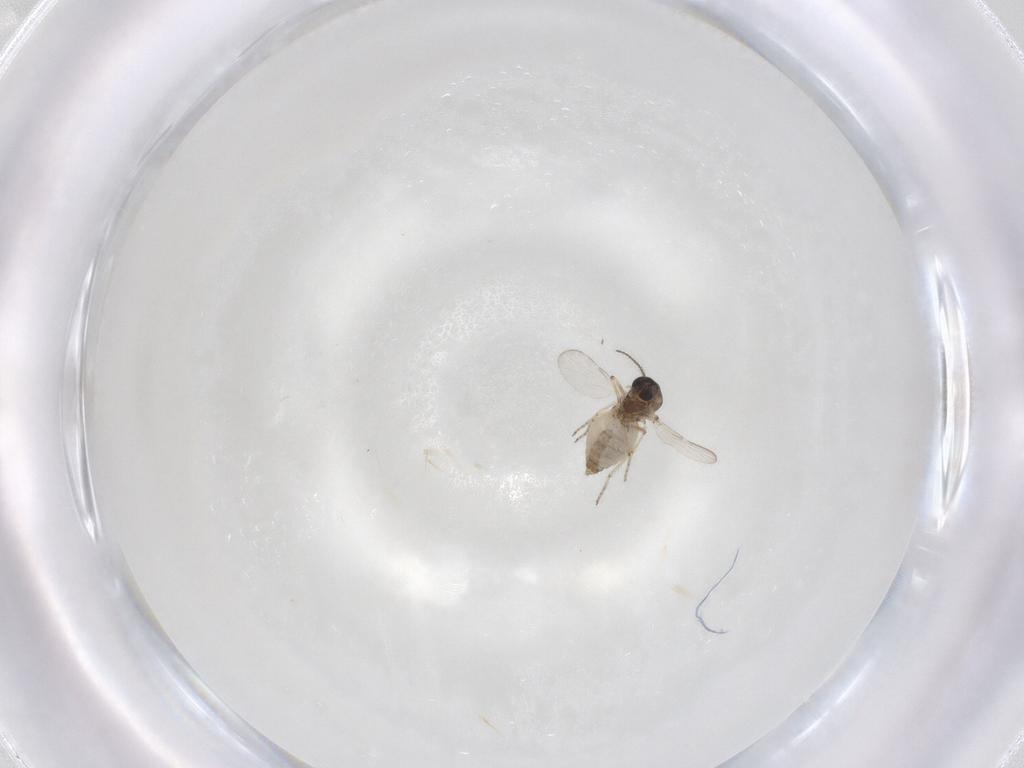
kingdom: Animalia
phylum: Arthropoda
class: Insecta
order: Diptera
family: Ceratopogonidae
